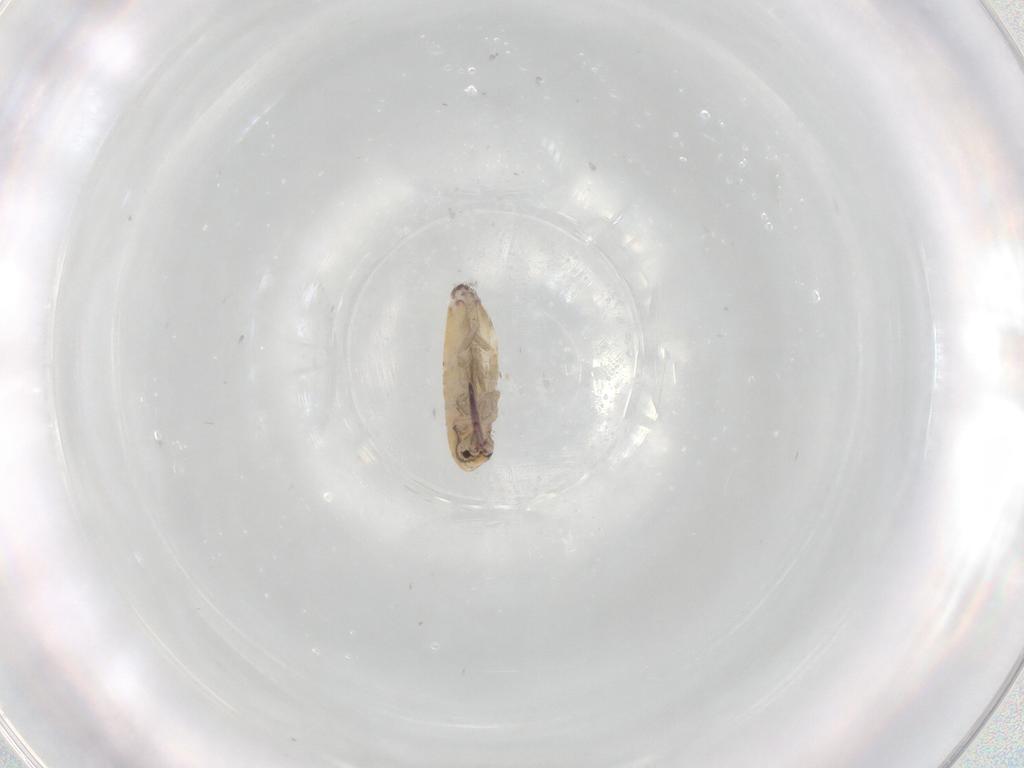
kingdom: Animalia
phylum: Arthropoda
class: Collembola
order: Entomobryomorpha
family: Entomobryidae
